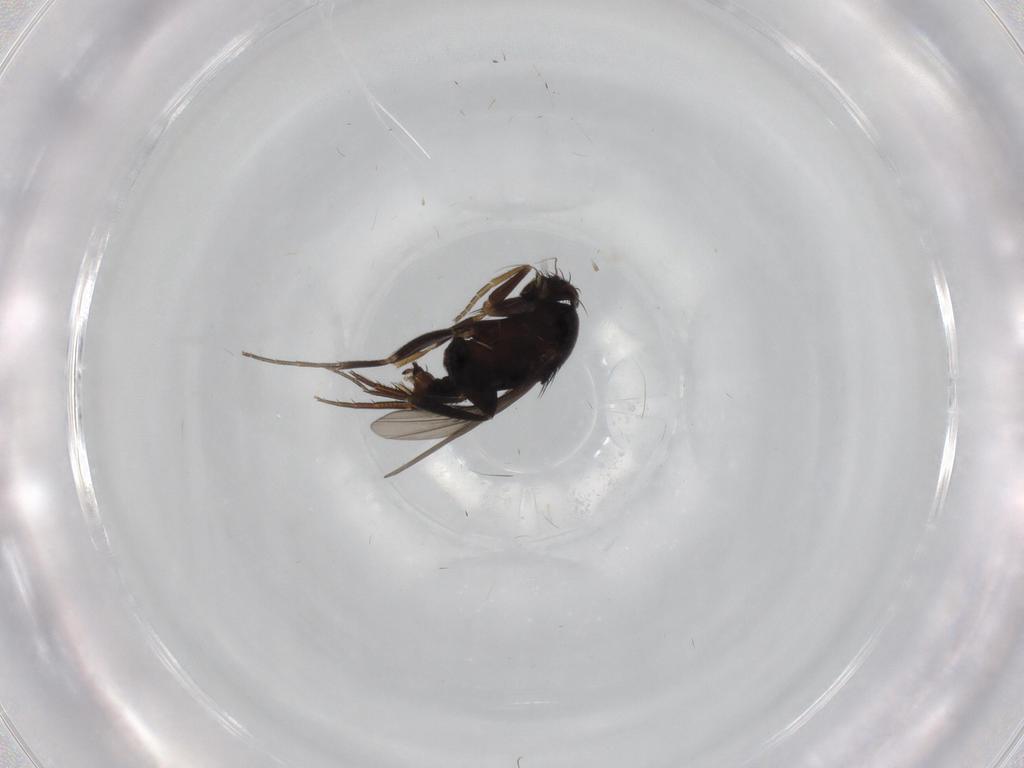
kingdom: Animalia
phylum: Arthropoda
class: Insecta
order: Diptera
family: Phoridae
